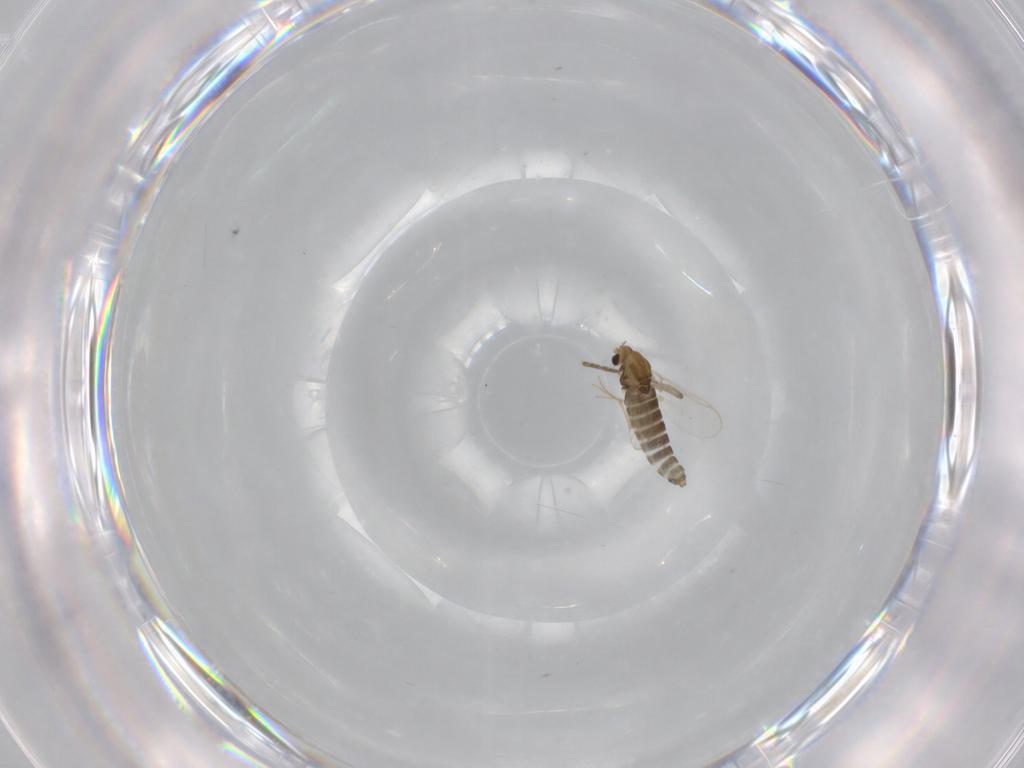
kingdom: Animalia
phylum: Arthropoda
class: Insecta
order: Diptera
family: Chironomidae
